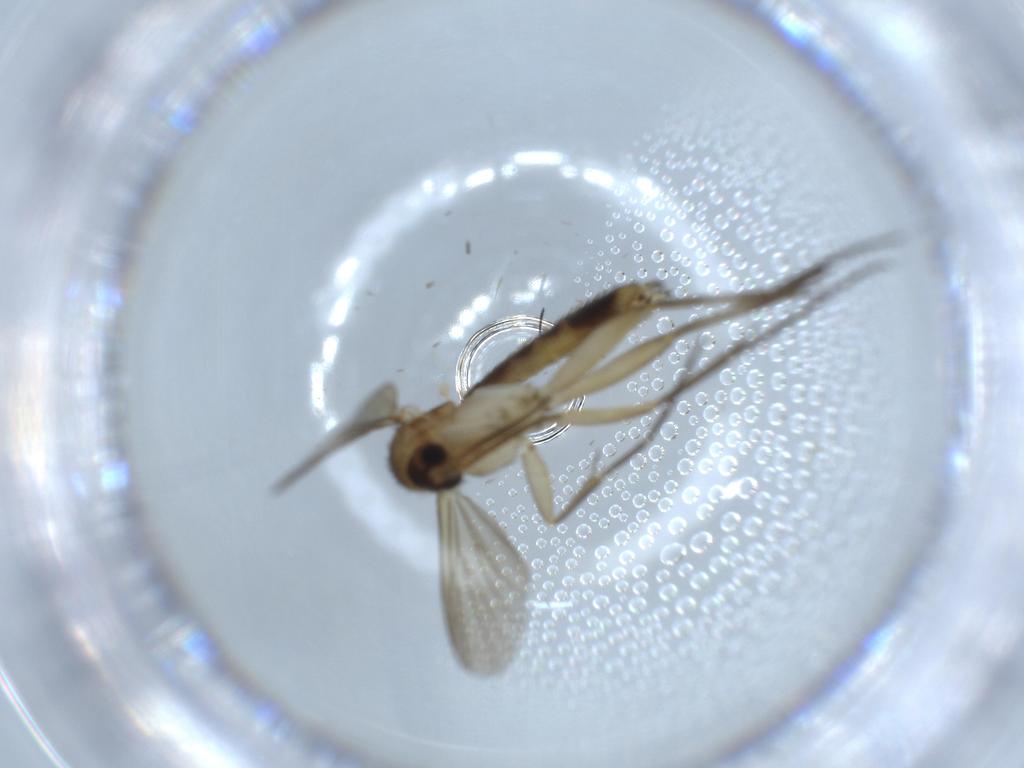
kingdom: Animalia
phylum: Arthropoda
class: Insecta
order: Diptera
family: Mycetophilidae
